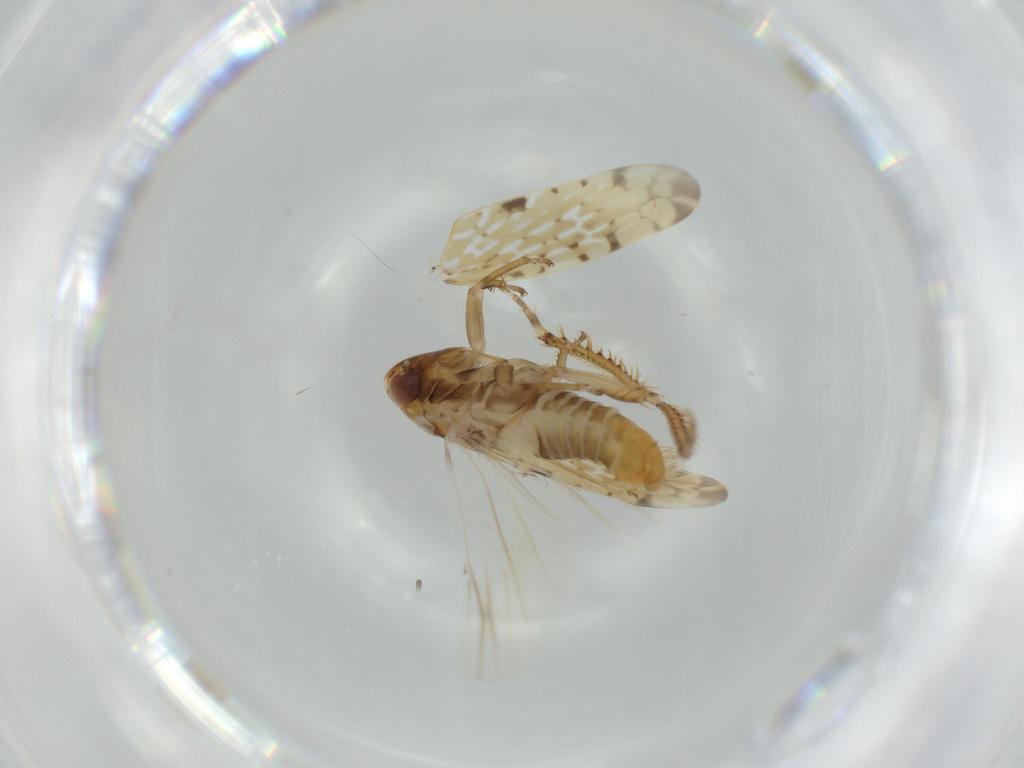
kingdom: Animalia
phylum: Arthropoda
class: Insecta
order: Hemiptera
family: Cicadellidae
